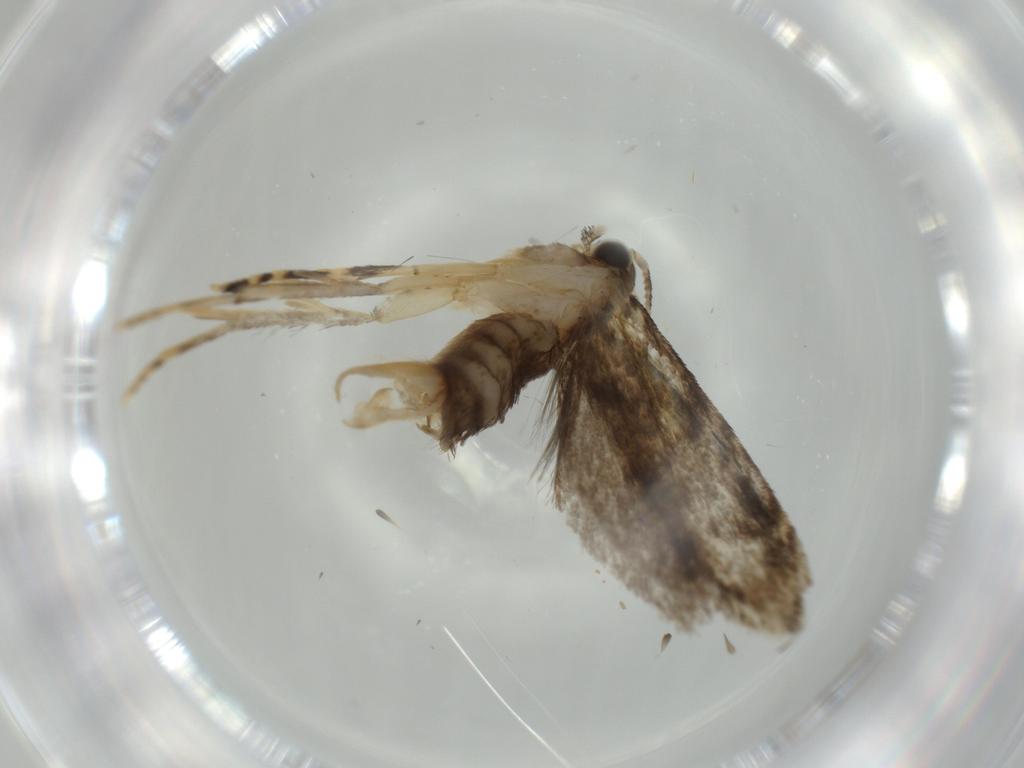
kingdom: Animalia
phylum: Arthropoda
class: Insecta
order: Lepidoptera
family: Tineidae
